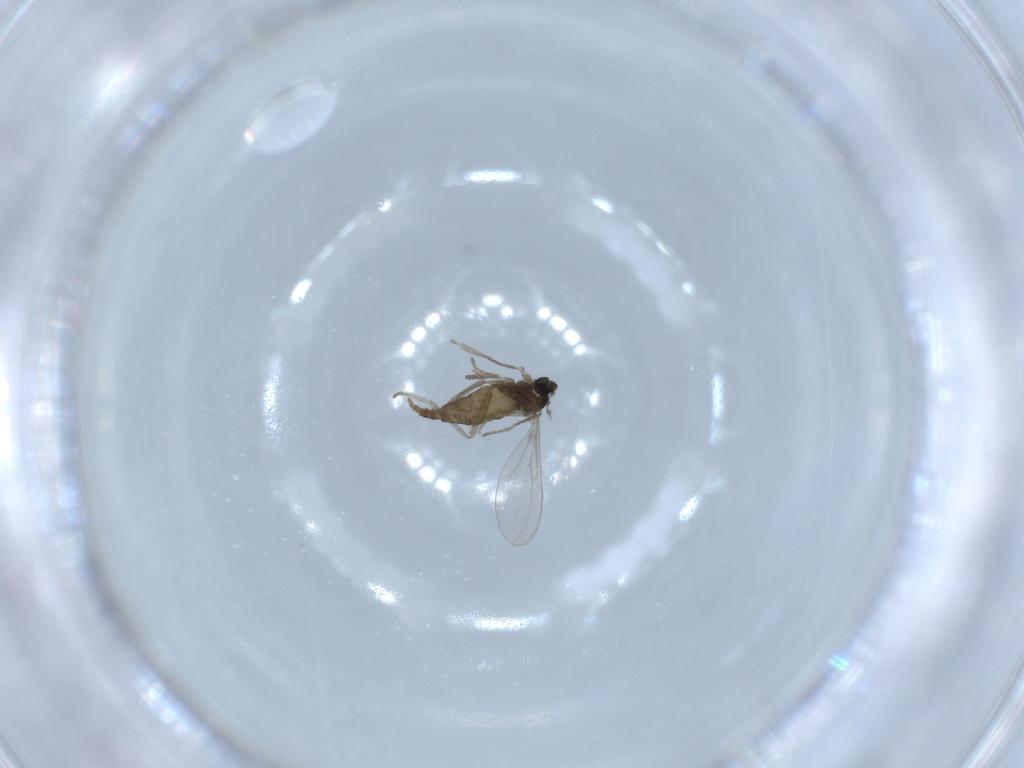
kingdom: Animalia
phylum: Arthropoda
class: Insecta
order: Diptera
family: Cecidomyiidae
